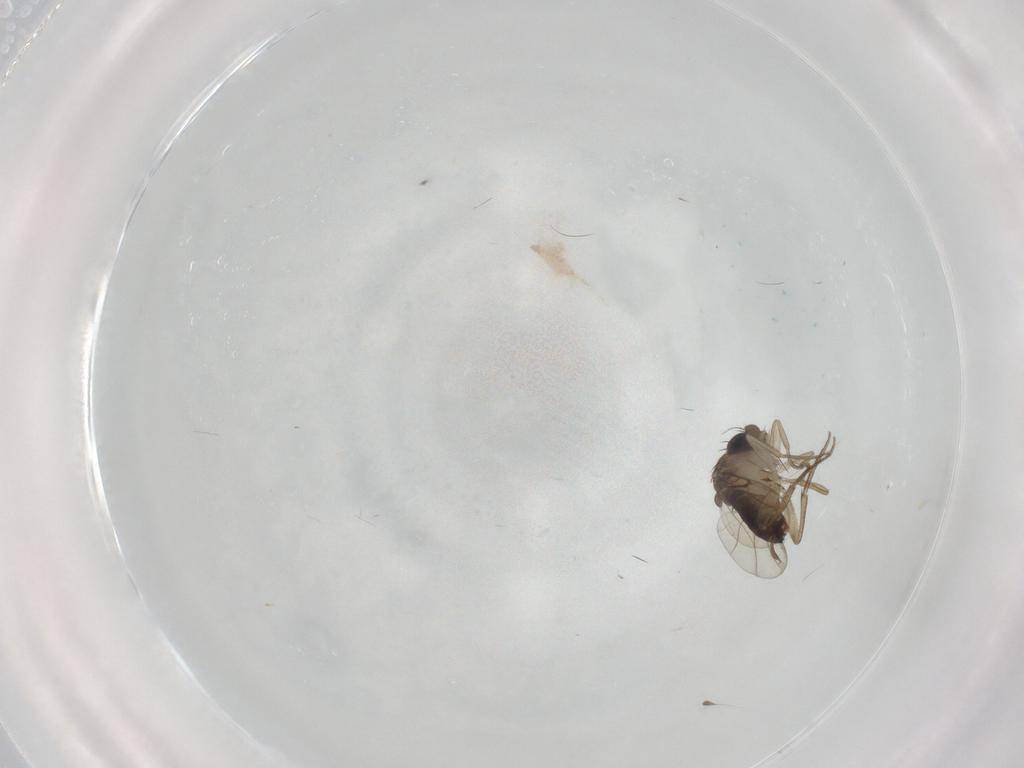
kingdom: Animalia
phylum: Arthropoda
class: Insecta
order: Diptera
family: Phoridae
